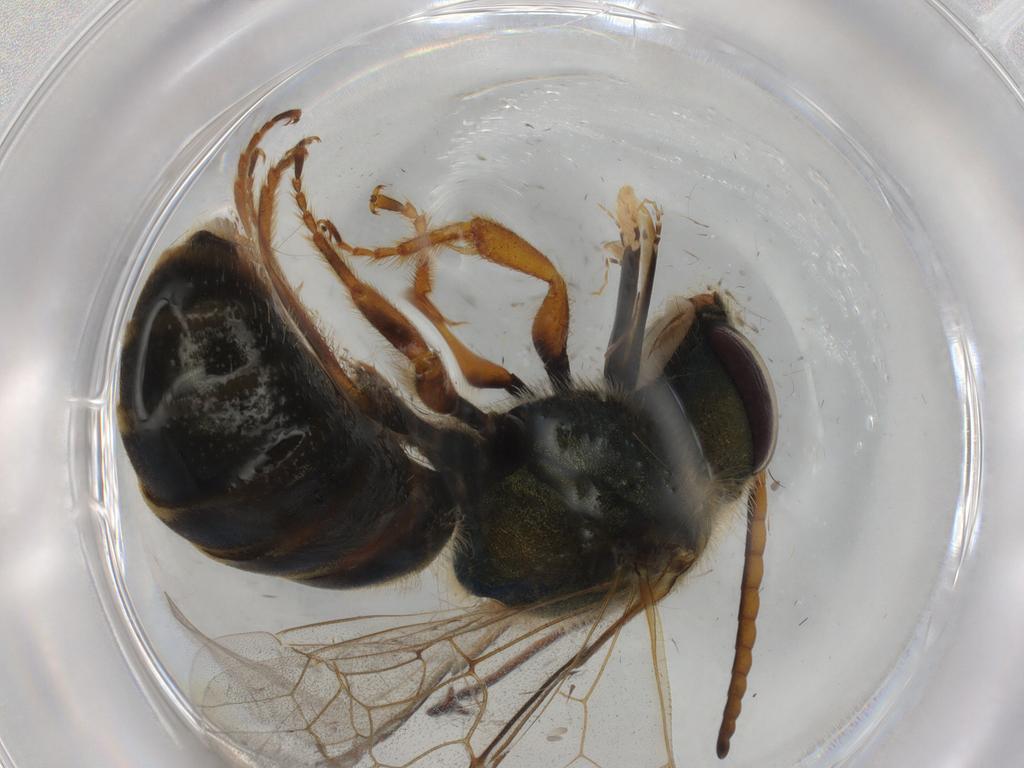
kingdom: Animalia
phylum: Arthropoda
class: Insecta
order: Hymenoptera
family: Halictidae
